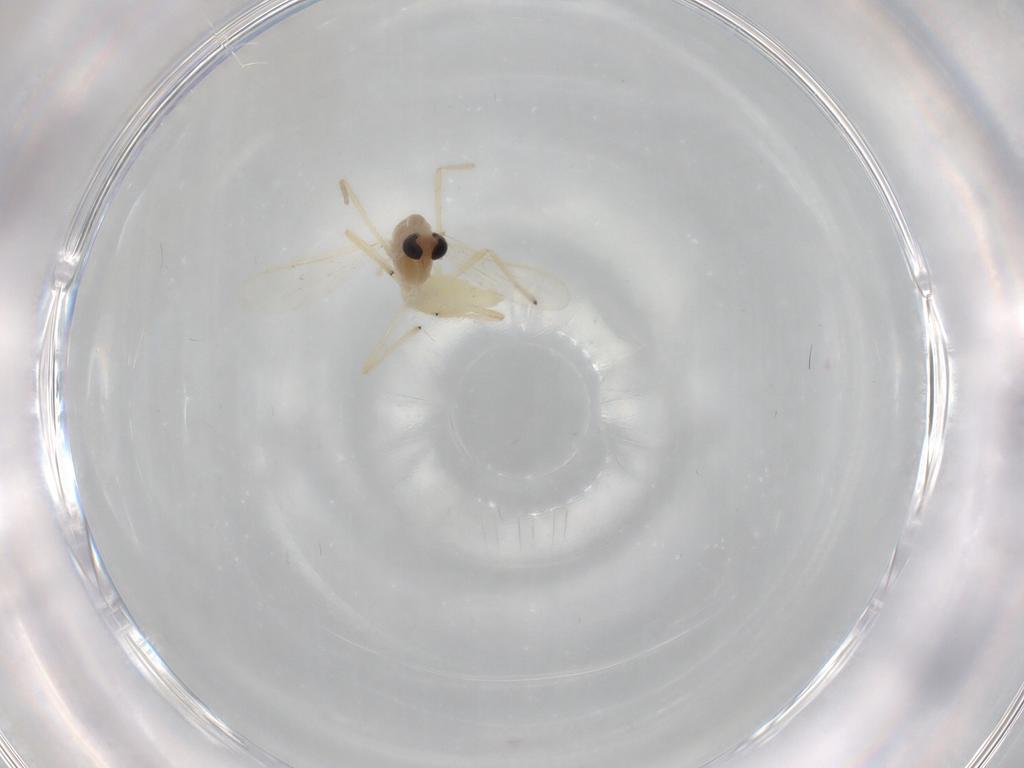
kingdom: Animalia
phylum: Arthropoda
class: Insecta
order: Diptera
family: Chironomidae
